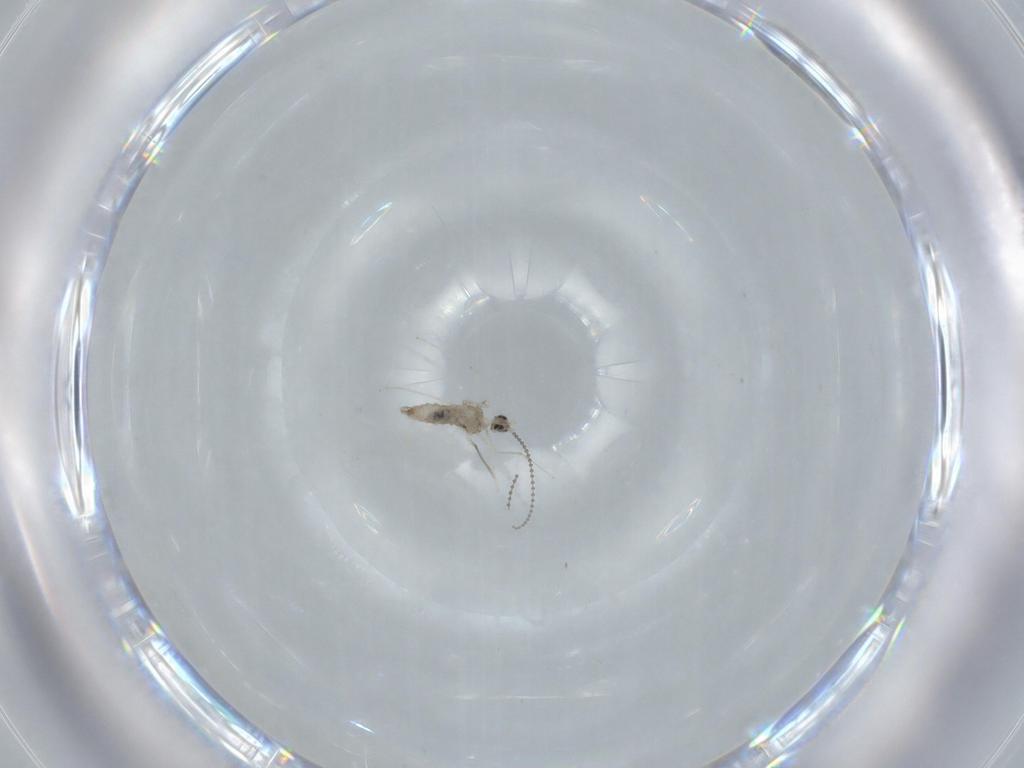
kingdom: Animalia
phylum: Arthropoda
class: Insecta
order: Diptera
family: Cecidomyiidae
